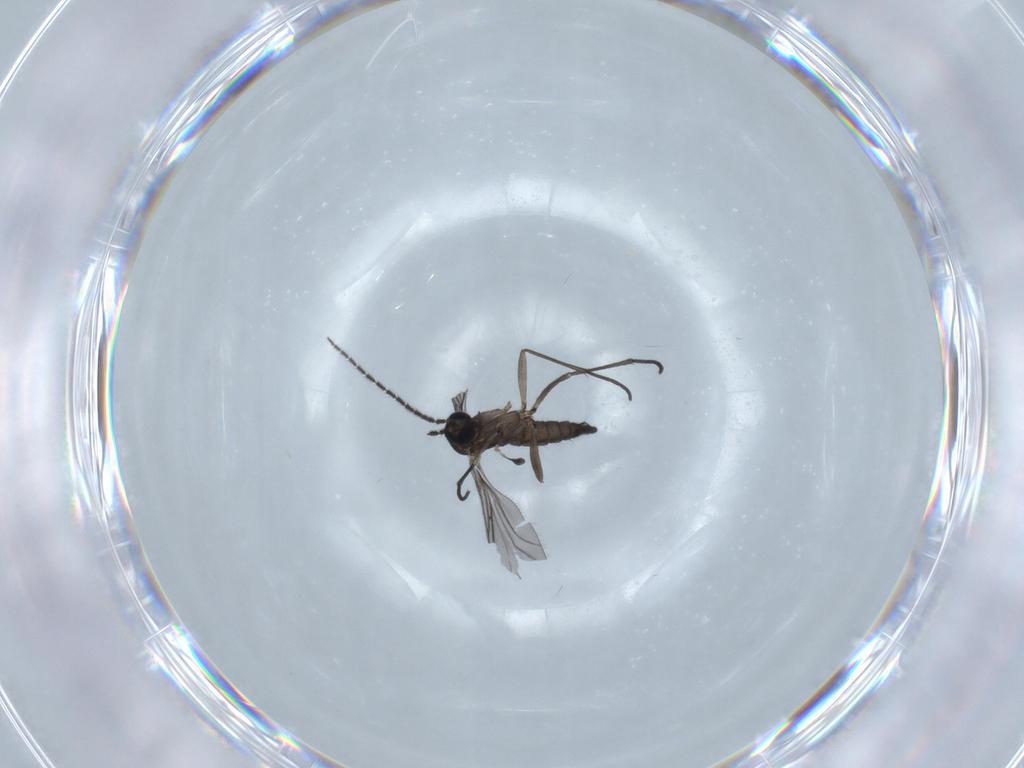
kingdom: Animalia
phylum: Arthropoda
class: Insecta
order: Diptera
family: Sciaridae
